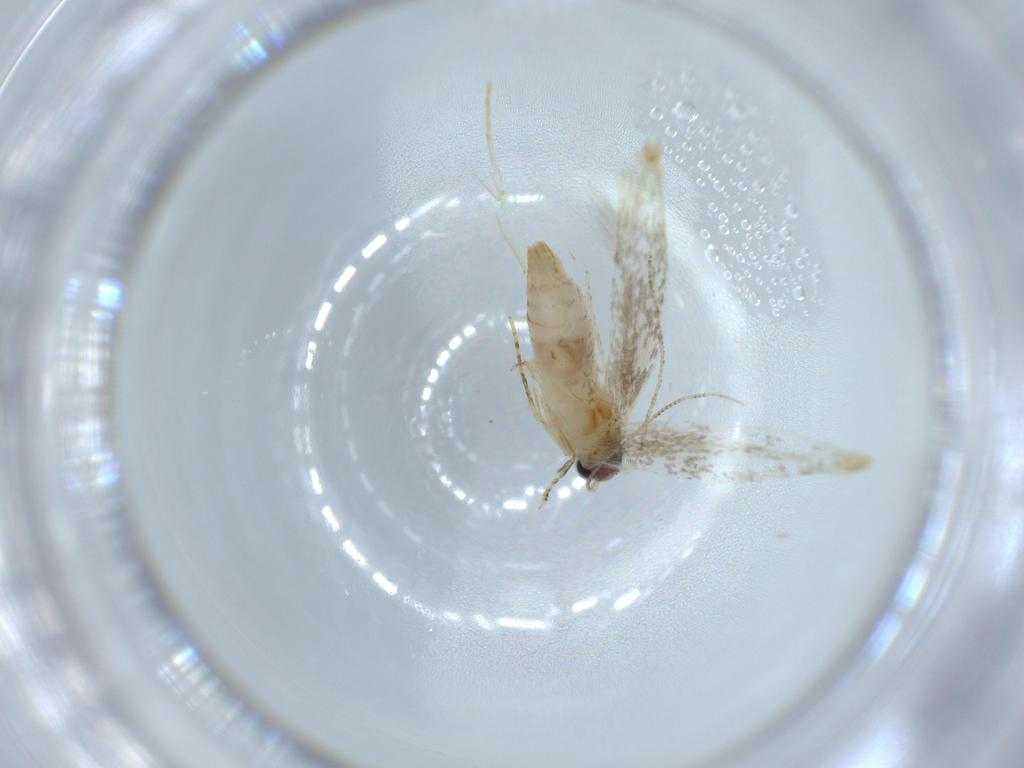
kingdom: Animalia
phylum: Arthropoda
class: Insecta
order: Lepidoptera
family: Tineidae
